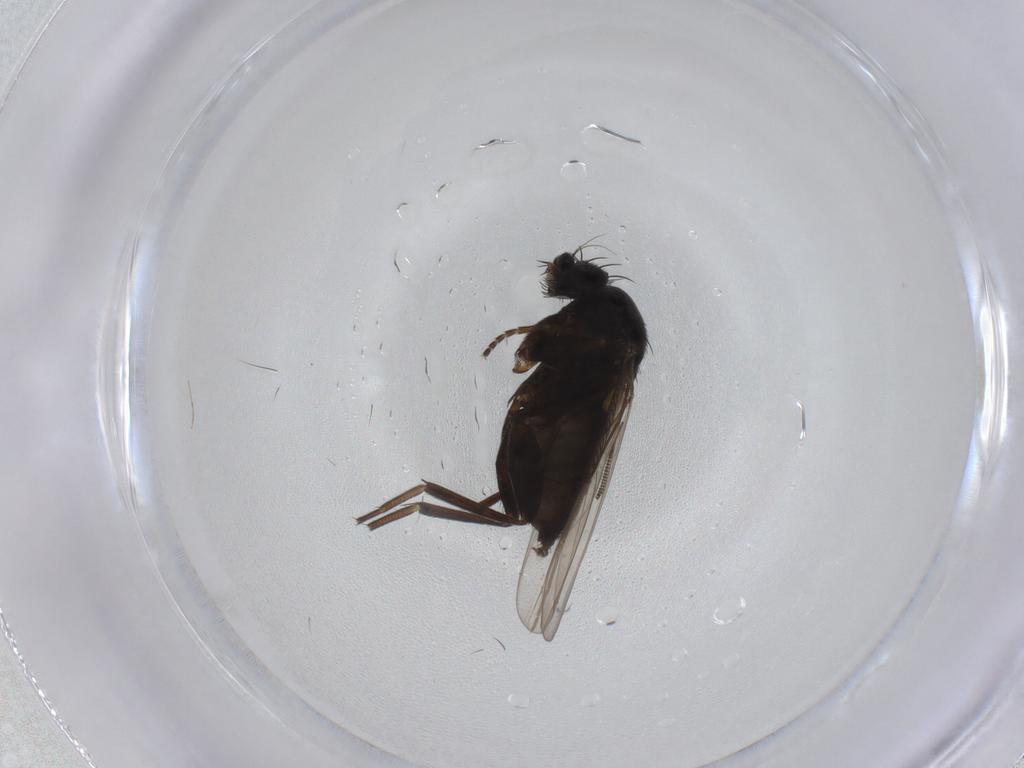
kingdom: Animalia
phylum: Arthropoda
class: Insecta
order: Diptera
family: Phoridae
